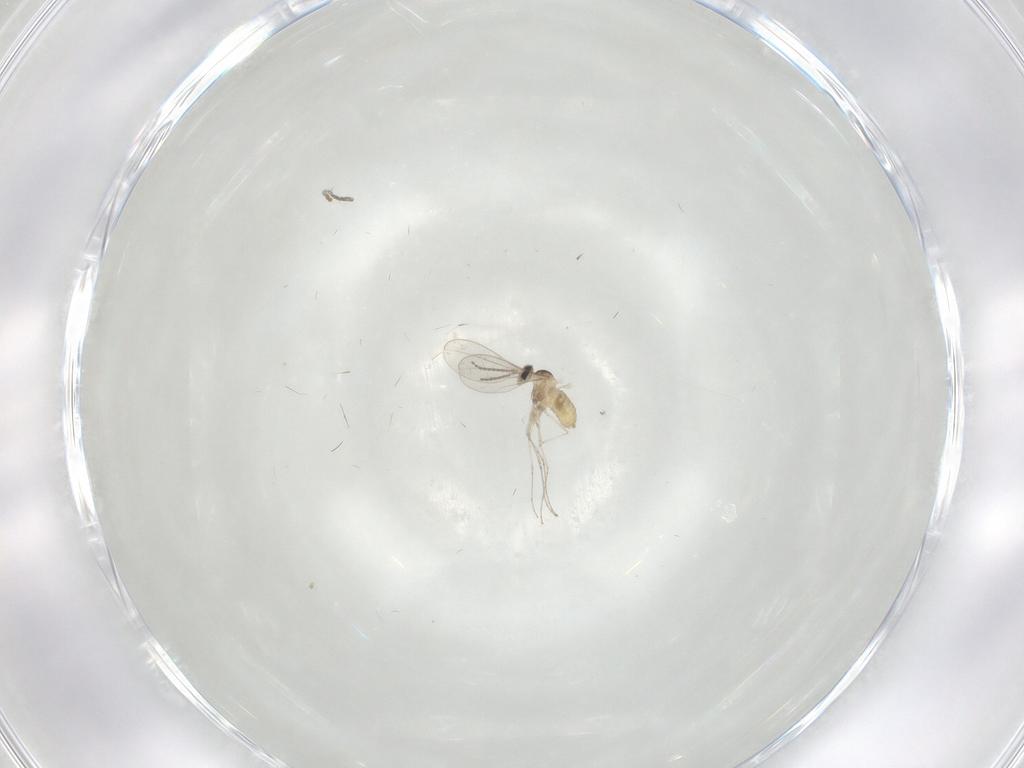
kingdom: Animalia
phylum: Arthropoda
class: Insecta
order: Diptera
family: Cecidomyiidae
